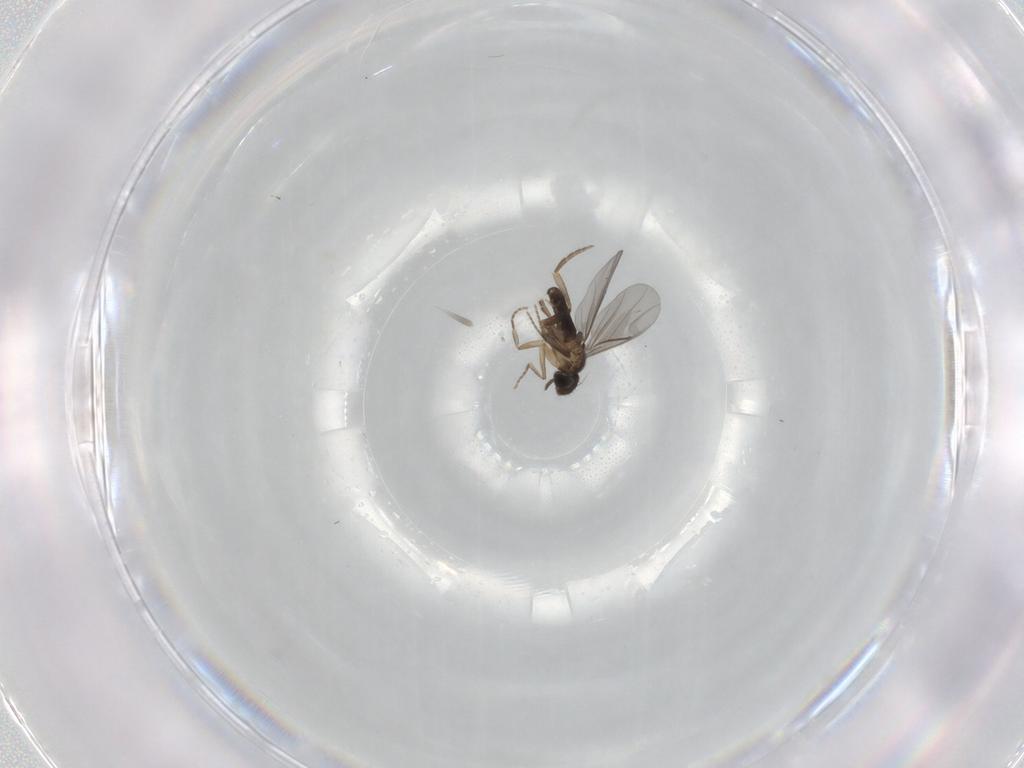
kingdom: Animalia
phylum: Arthropoda
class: Insecta
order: Diptera
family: Phoridae
